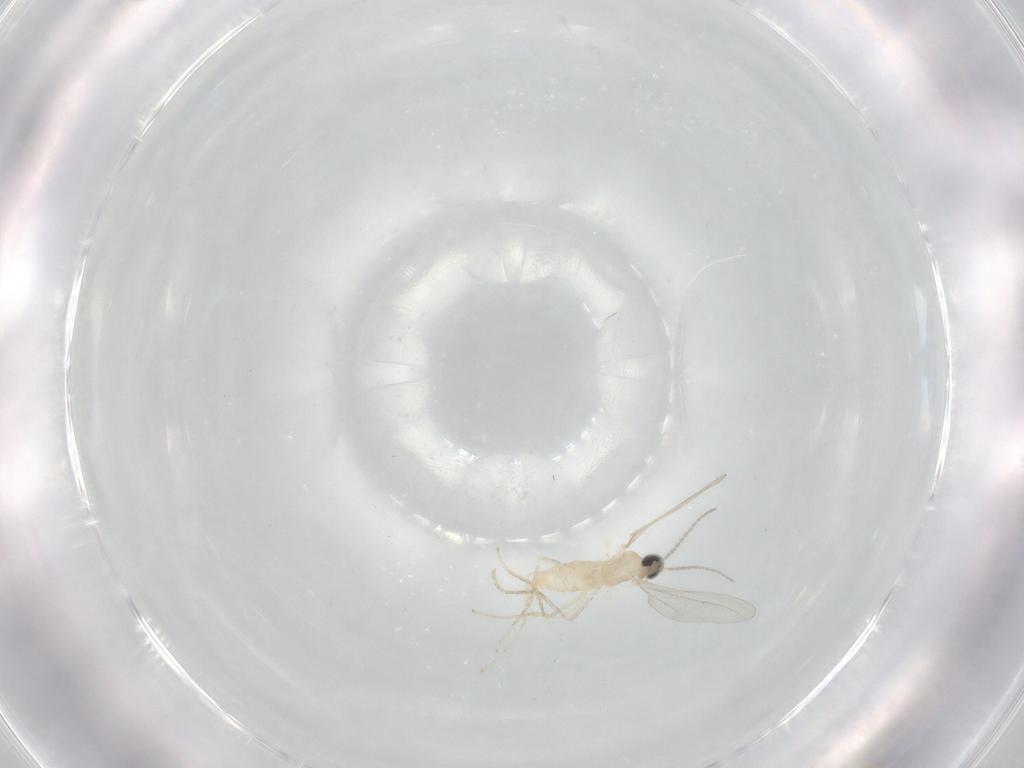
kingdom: Animalia
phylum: Arthropoda
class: Insecta
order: Diptera
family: Cecidomyiidae
